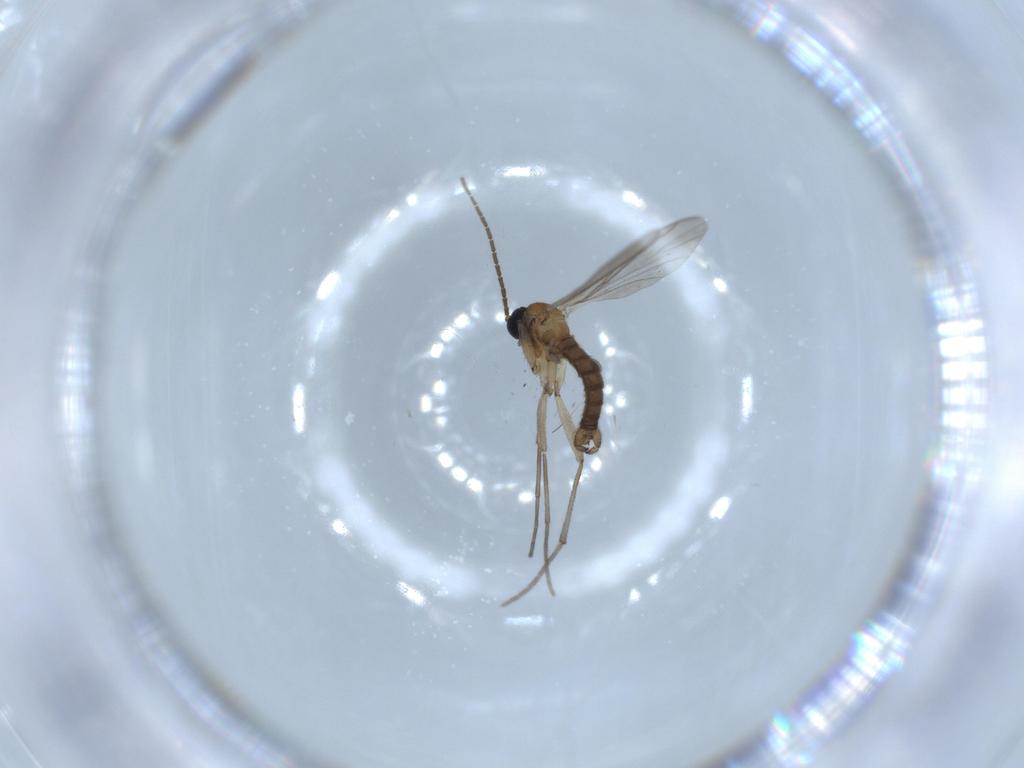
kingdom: Animalia
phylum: Arthropoda
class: Insecta
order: Diptera
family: Sciaridae
